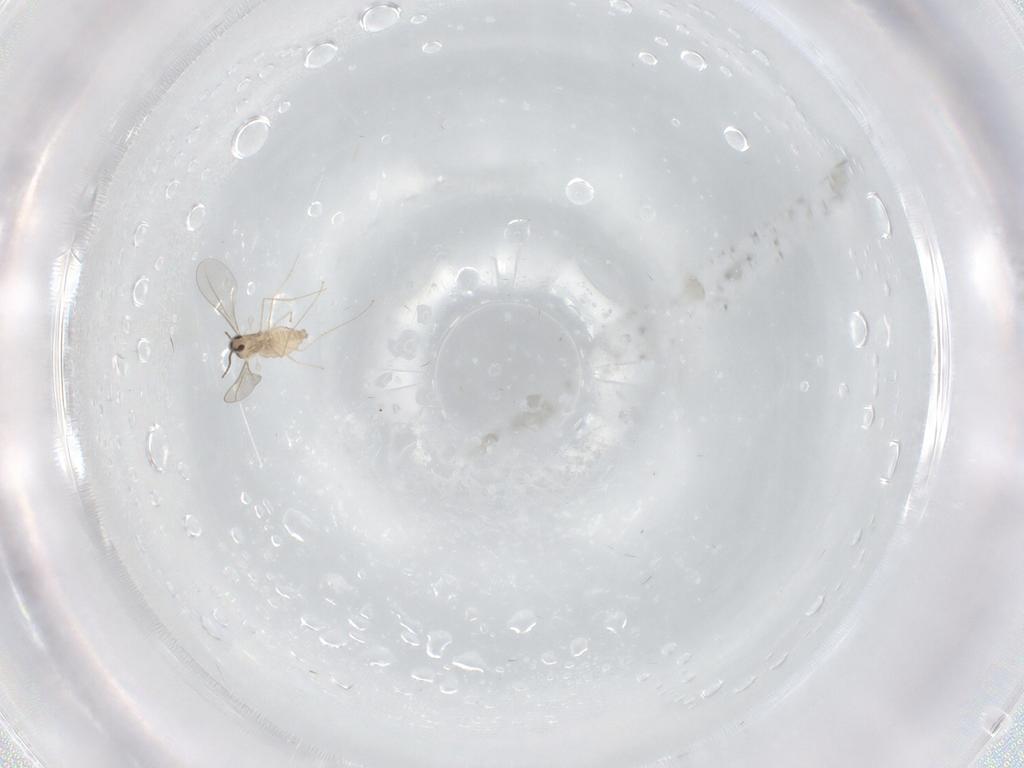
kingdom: Animalia
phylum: Arthropoda
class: Insecta
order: Diptera
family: Cecidomyiidae
